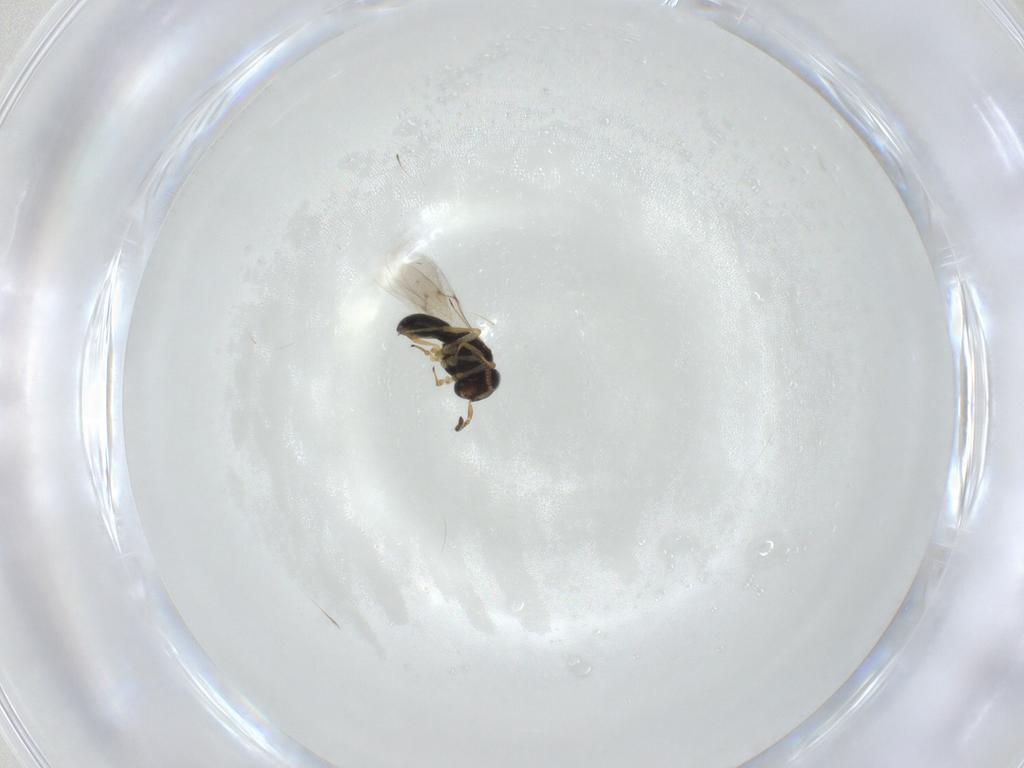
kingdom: Animalia
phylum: Arthropoda
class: Insecta
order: Hymenoptera
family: Scelionidae
